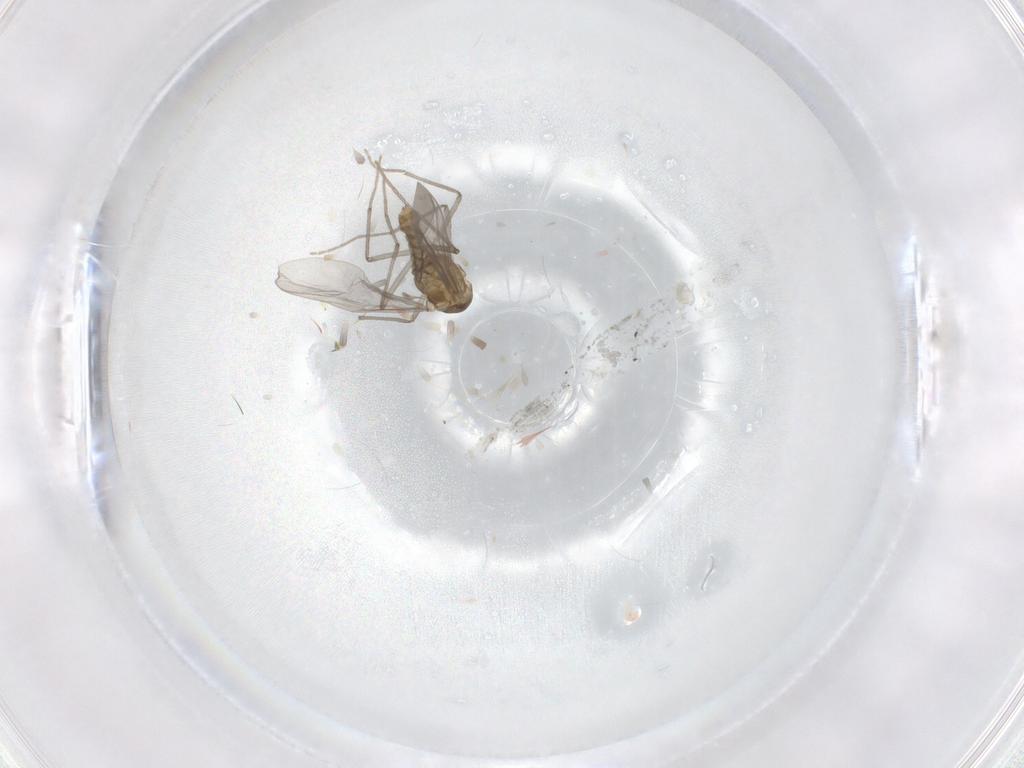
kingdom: Animalia
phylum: Arthropoda
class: Insecta
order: Diptera
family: Chironomidae
